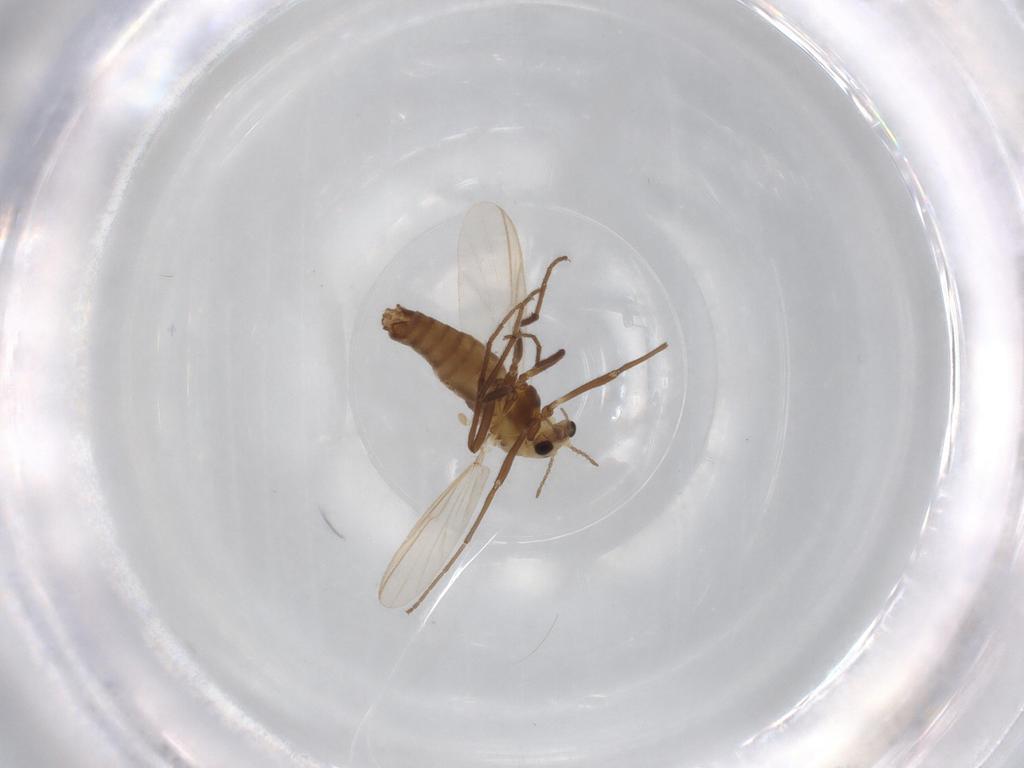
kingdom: Animalia
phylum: Arthropoda
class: Insecta
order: Diptera
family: Chironomidae
